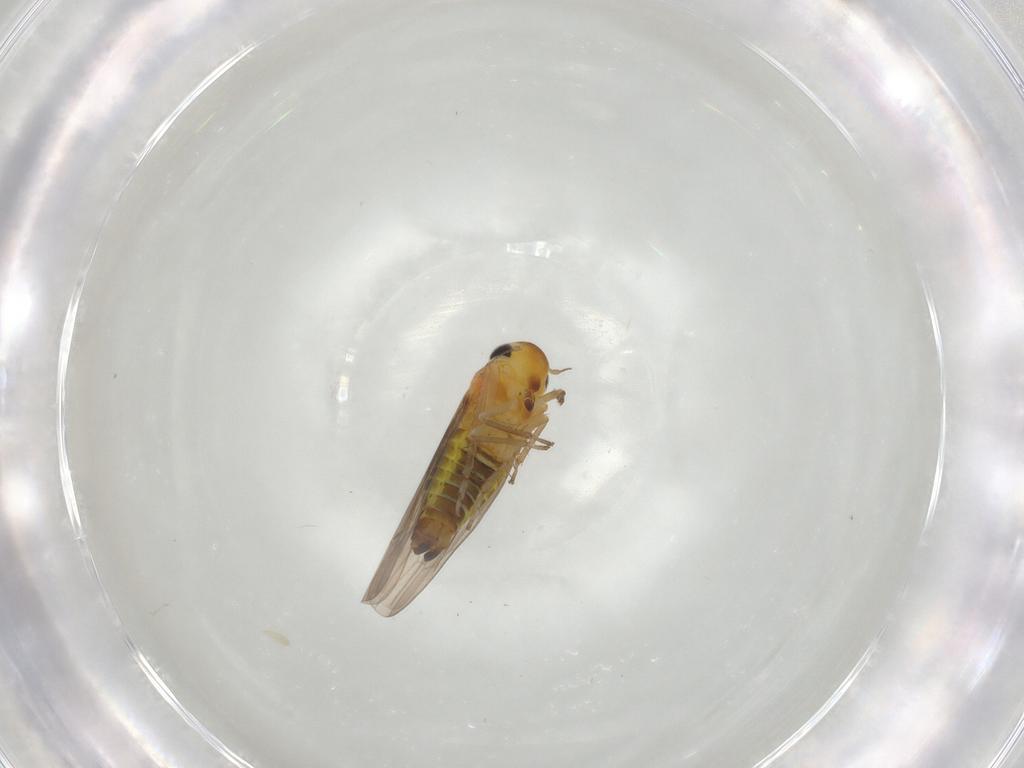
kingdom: Animalia
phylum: Arthropoda
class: Insecta
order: Hemiptera
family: Cicadellidae
